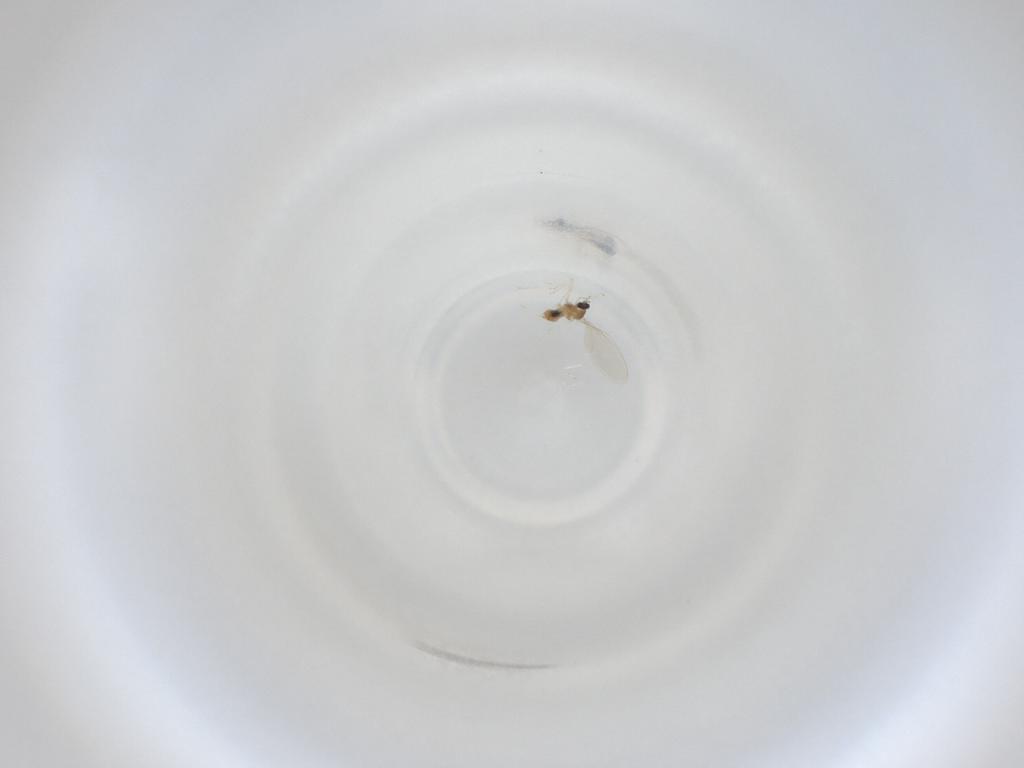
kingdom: Animalia
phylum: Arthropoda
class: Insecta
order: Diptera
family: Cecidomyiidae
